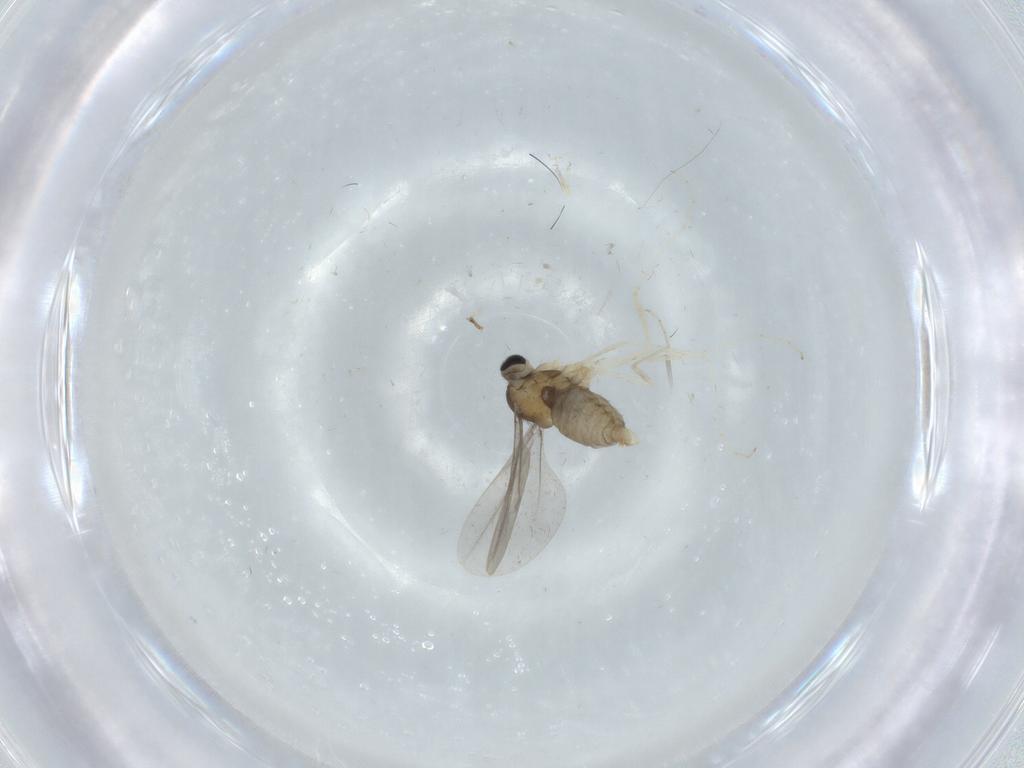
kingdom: Animalia
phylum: Arthropoda
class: Insecta
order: Diptera
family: Cecidomyiidae
